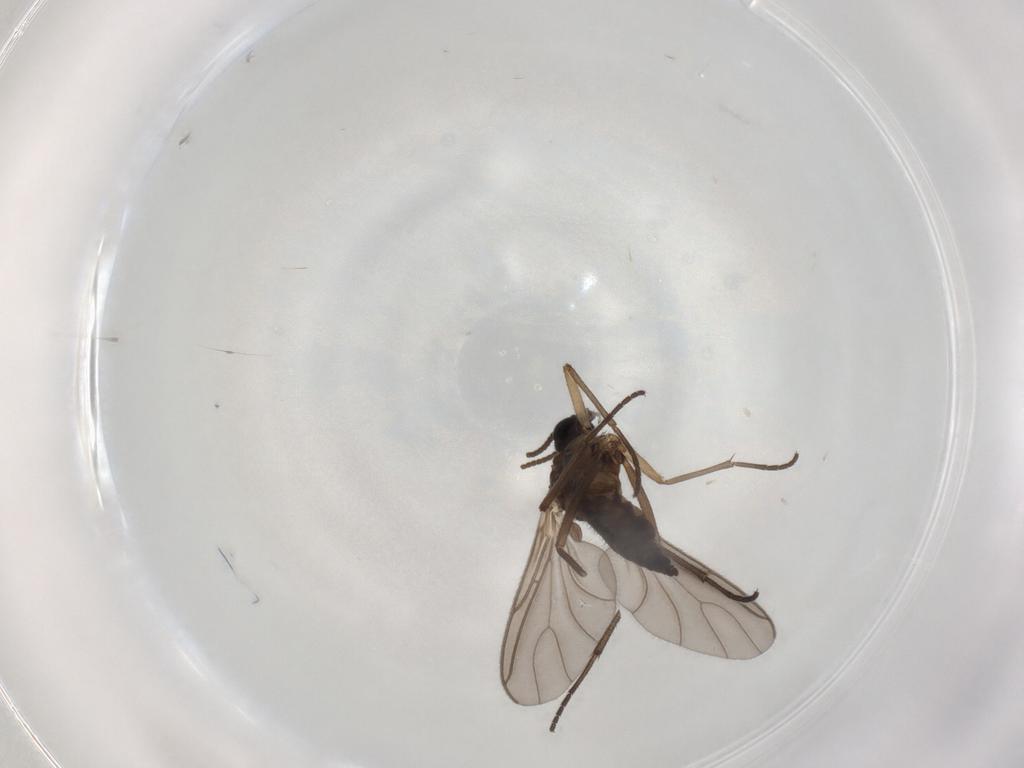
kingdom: Animalia
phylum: Arthropoda
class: Insecta
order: Diptera
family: Sciaridae
